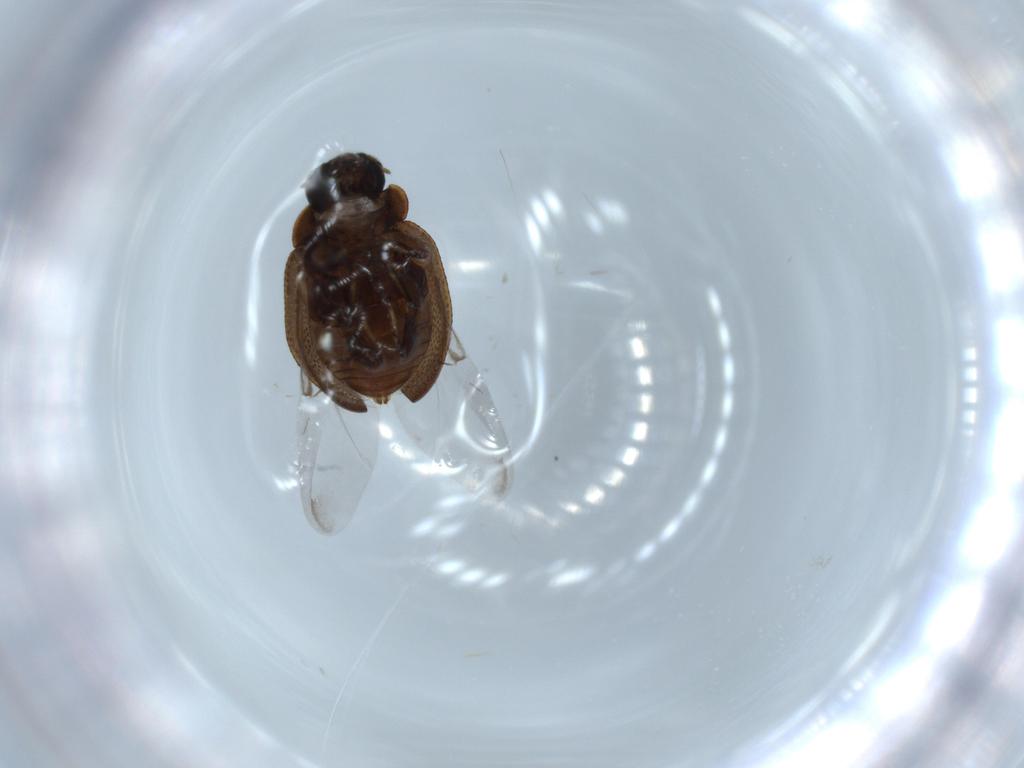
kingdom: Animalia
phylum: Arthropoda
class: Insecta
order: Coleoptera
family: Coccinellidae
